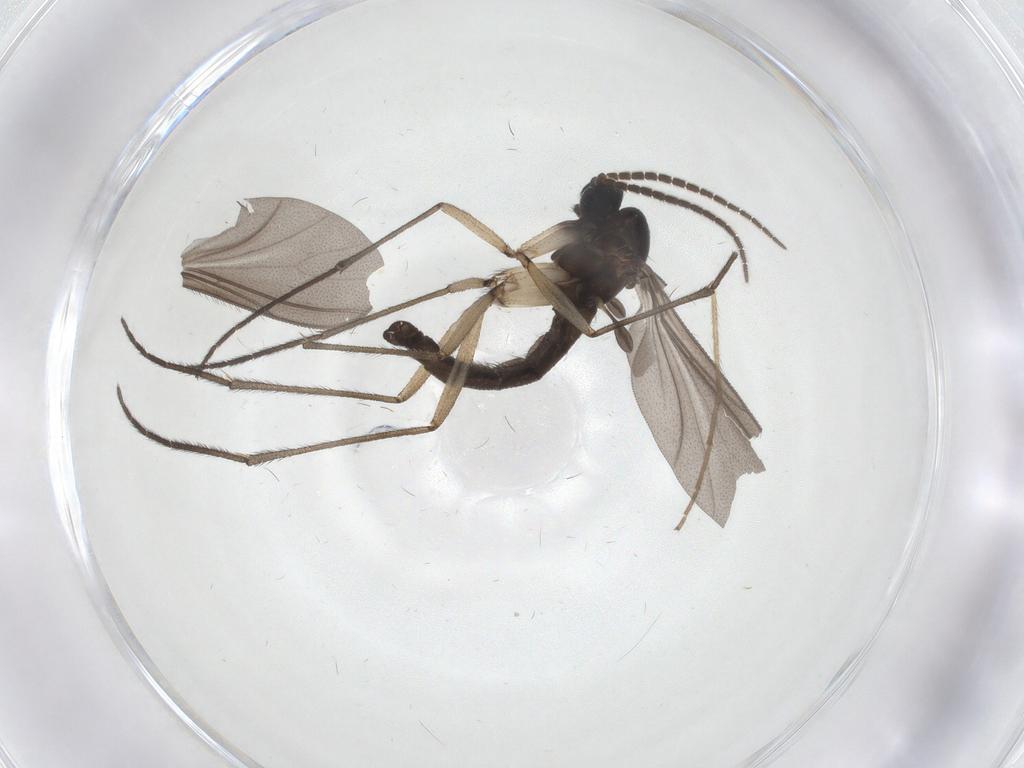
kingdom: Animalia
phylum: Arthropoda
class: Insecta
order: Diptera
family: Chironomidae
